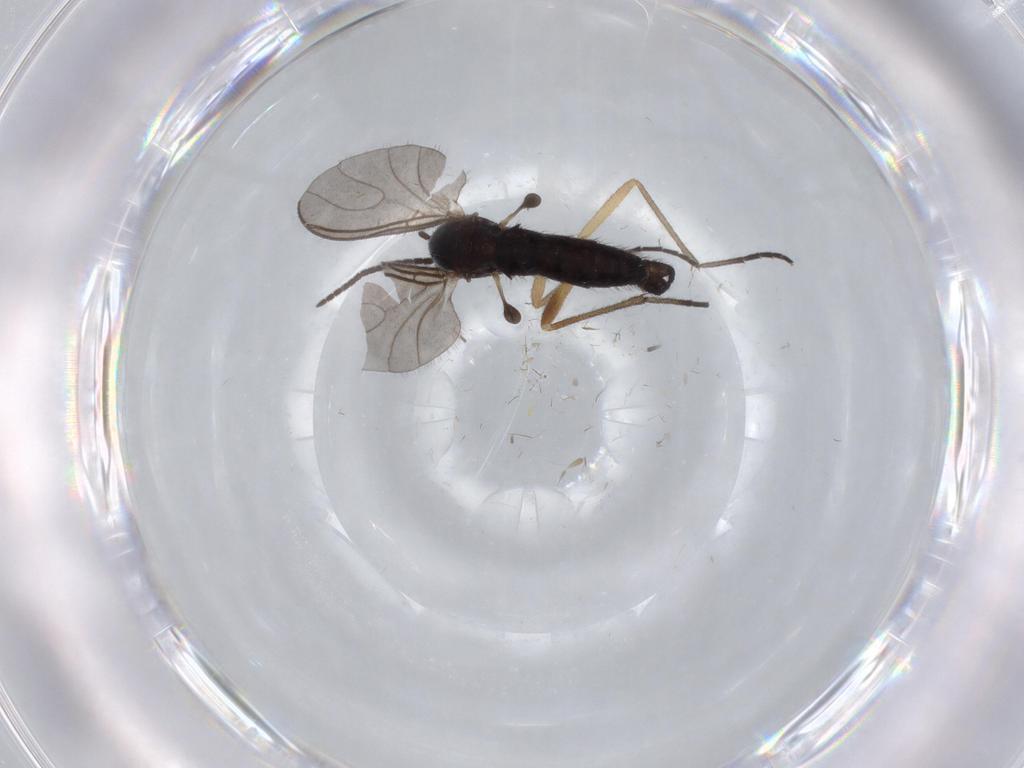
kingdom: Animalia
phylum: Arthropoda
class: Insecta
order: Diptera
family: Sciaridae
